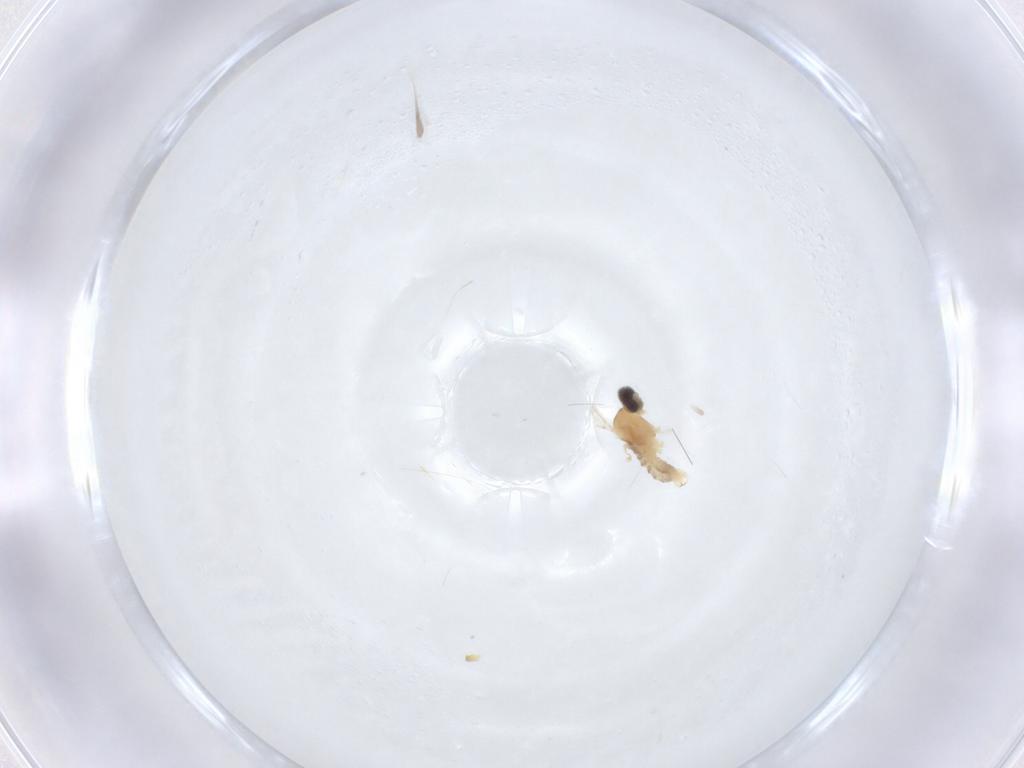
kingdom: Animalia
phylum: Arthropoda
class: Insecta
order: Diptera
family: Cecidomyiidae
